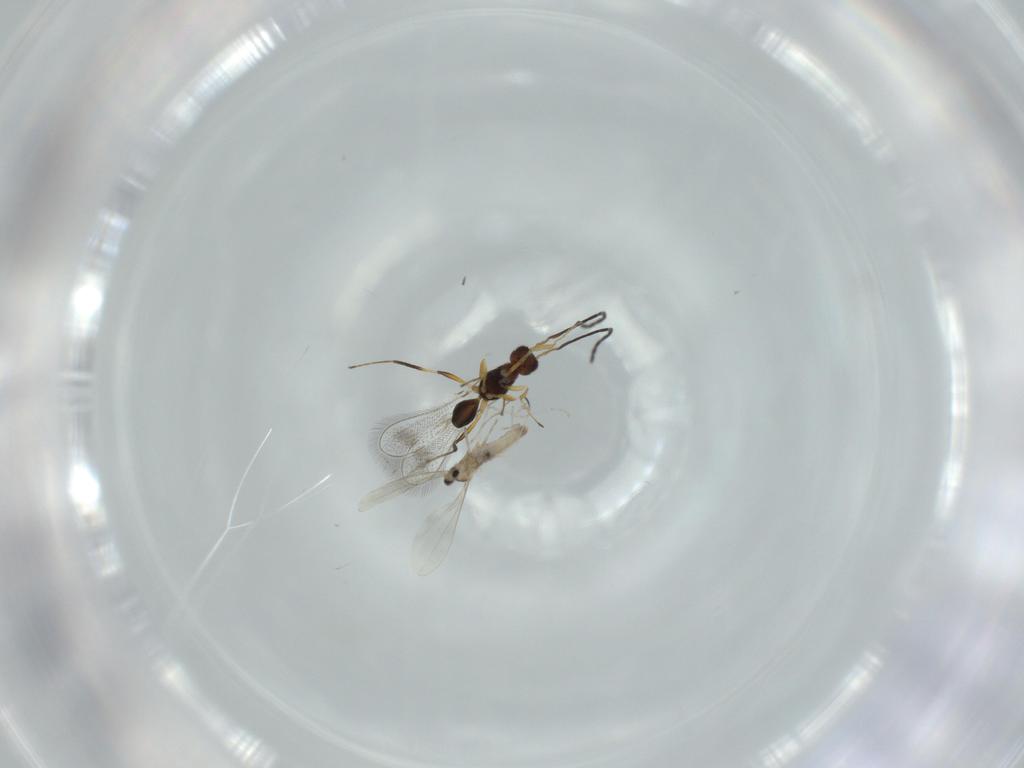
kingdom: Animalia
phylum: Arthropoda
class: Insecta
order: Hymenoptera
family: Mymaridae
